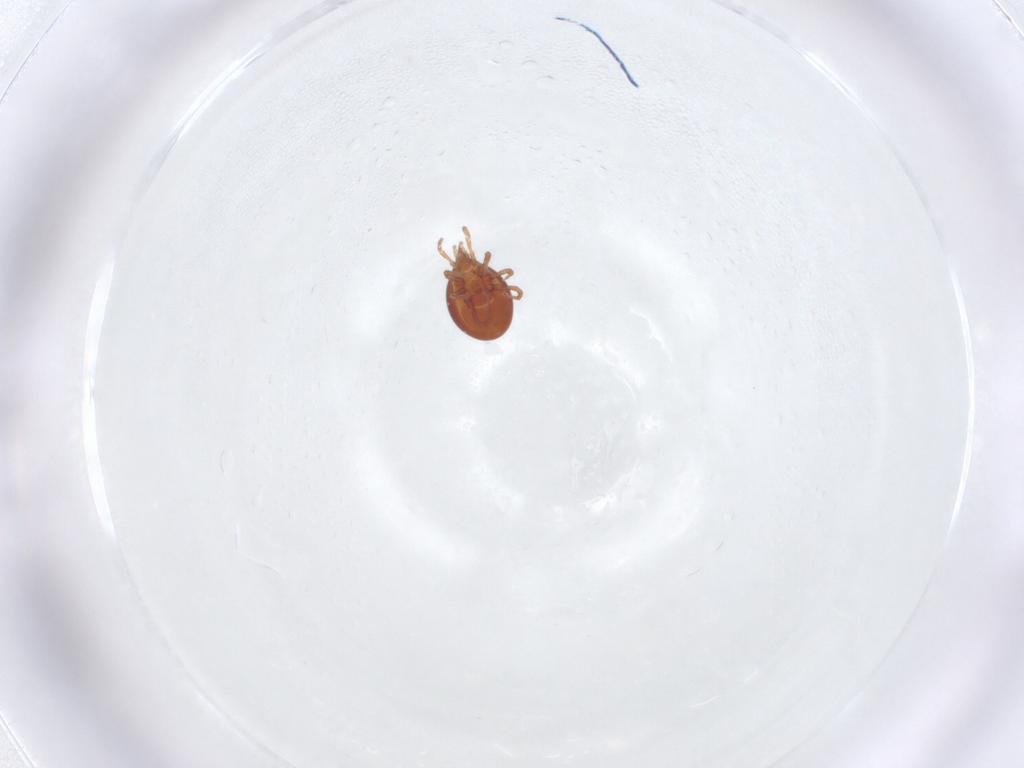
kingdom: Animalia
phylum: Arthropoda
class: Arachnida
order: Mesostigmata
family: Parasitidae
